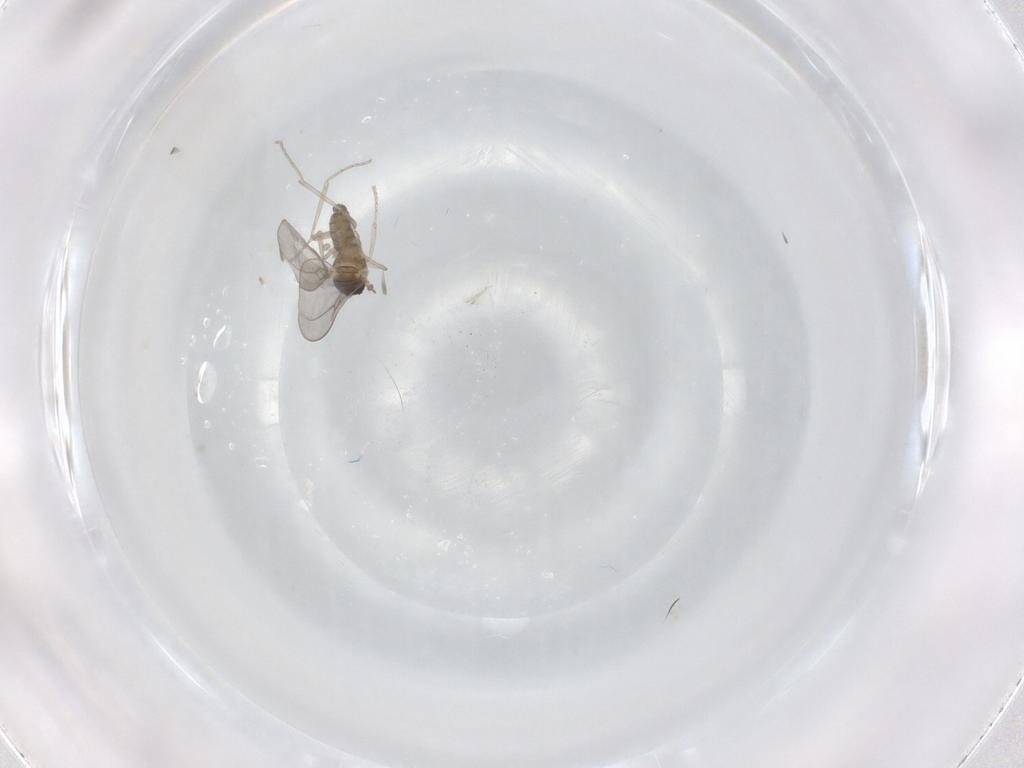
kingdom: Animalia
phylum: Arthropoda
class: Insecta
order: Diptera
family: Cecidomyiidae
